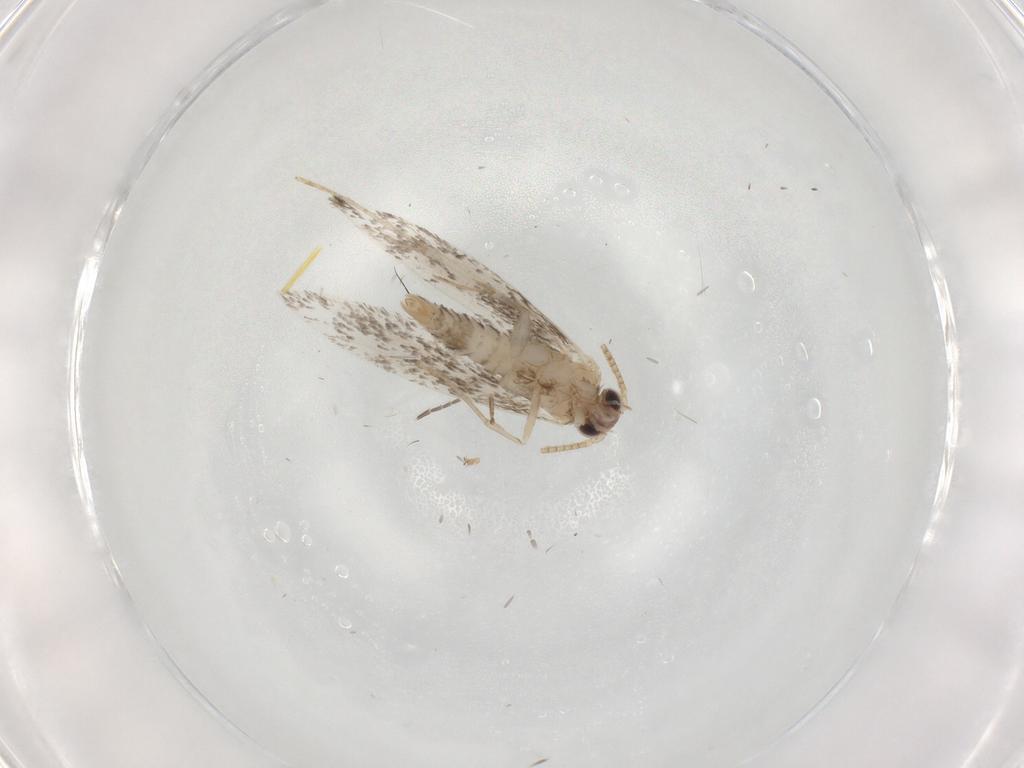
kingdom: Animalia
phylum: Arthropoda
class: Insecta
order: Lepidoptera
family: Tineidae
